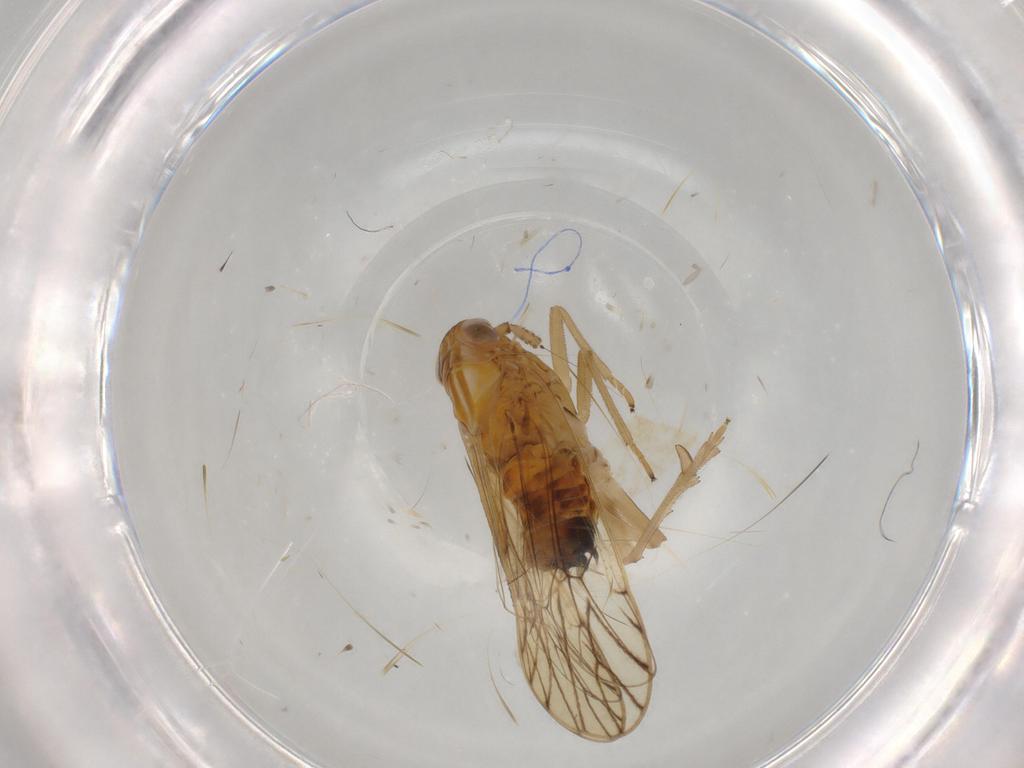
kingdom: Animalia
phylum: Arthropoda
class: Insecta
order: Hemiptera
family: Delphacidae
